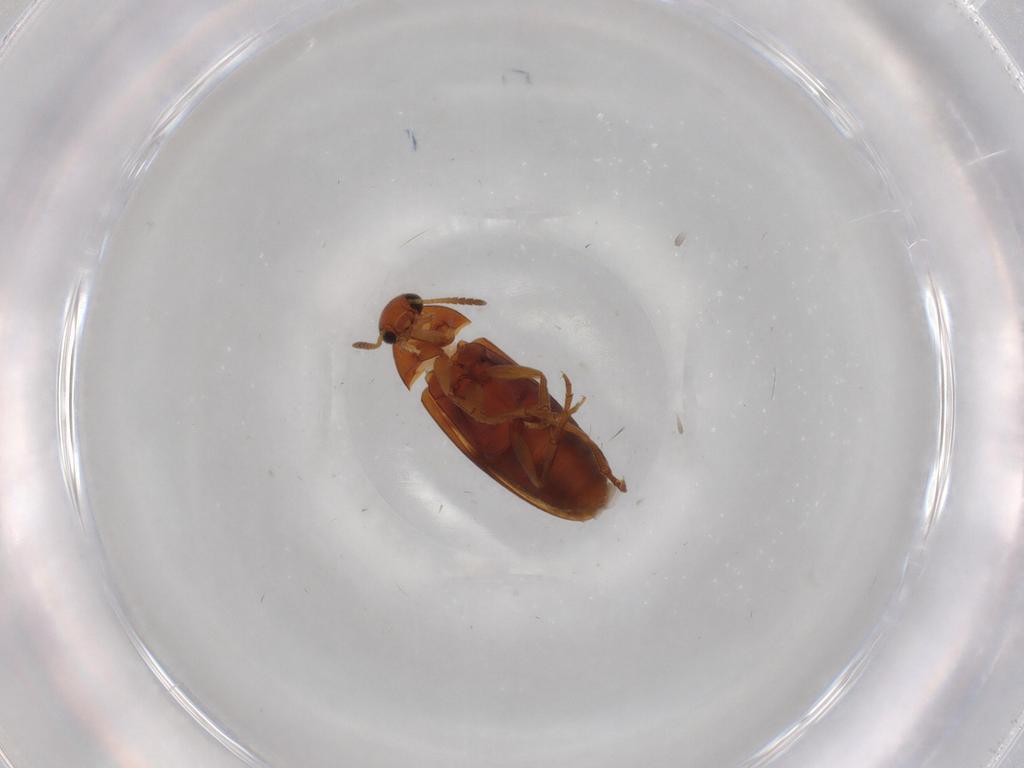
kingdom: Animalia
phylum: Arthropoda
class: Insecta
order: Coleoptera
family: Scraptiidae
